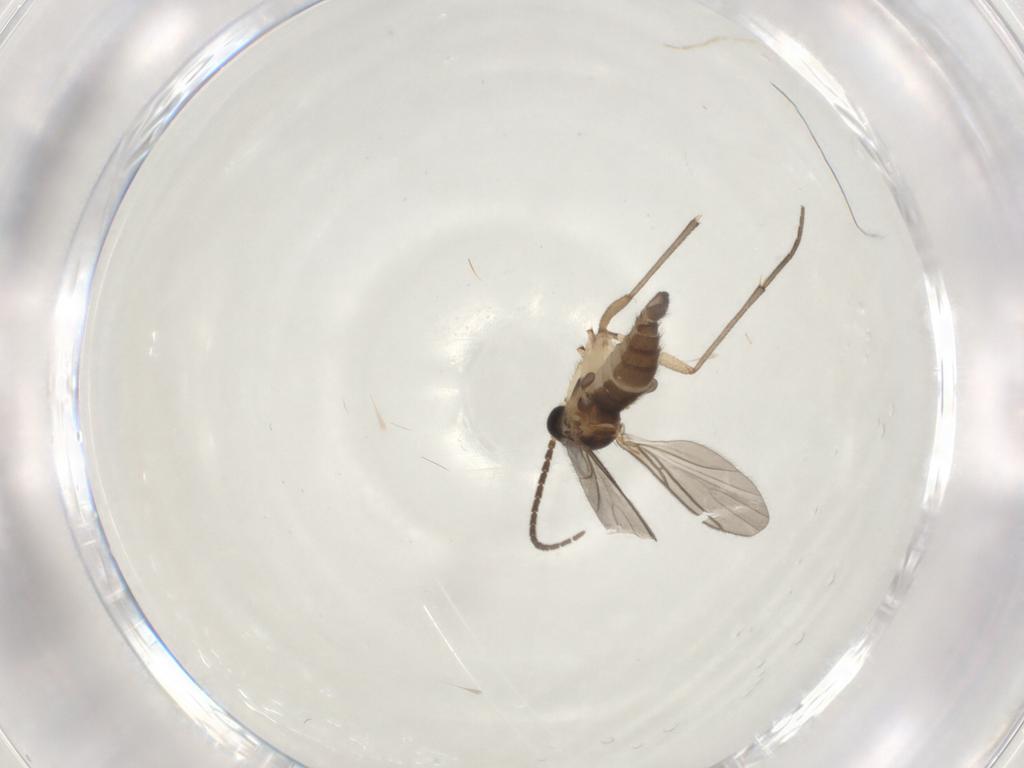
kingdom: Animalia
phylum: Arthropoda
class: Insecta
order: Diptera
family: Sciaridae
